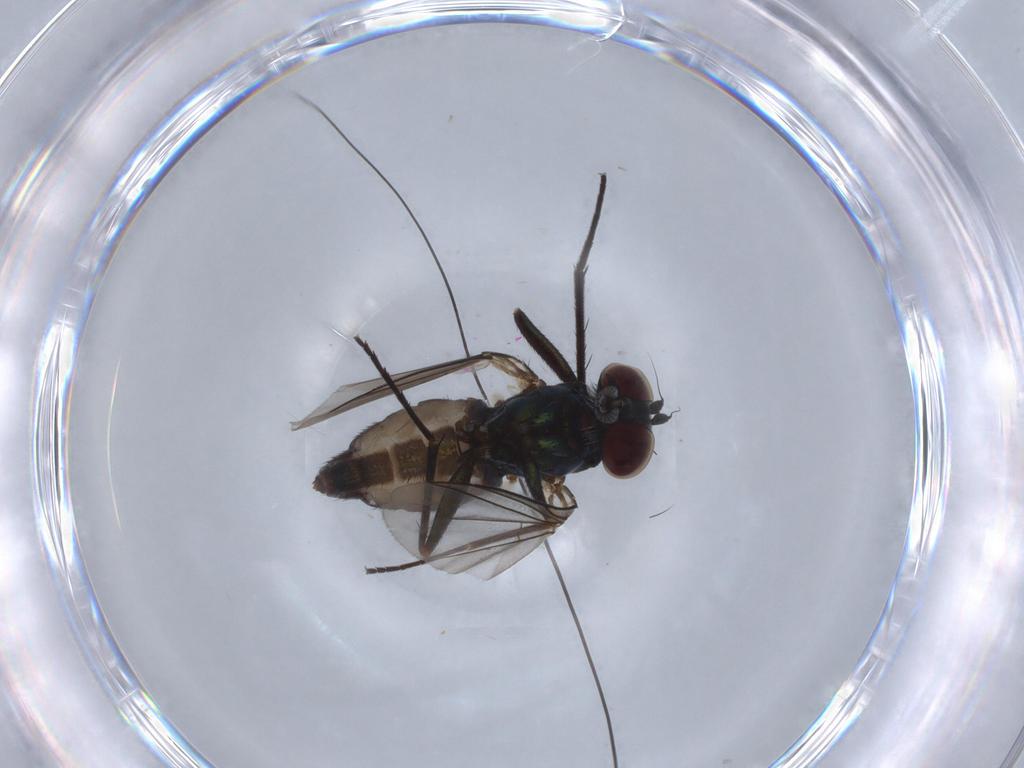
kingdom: Animalia
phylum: Arthropoda
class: Insecta
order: Diptera
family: Dolichopodidae
